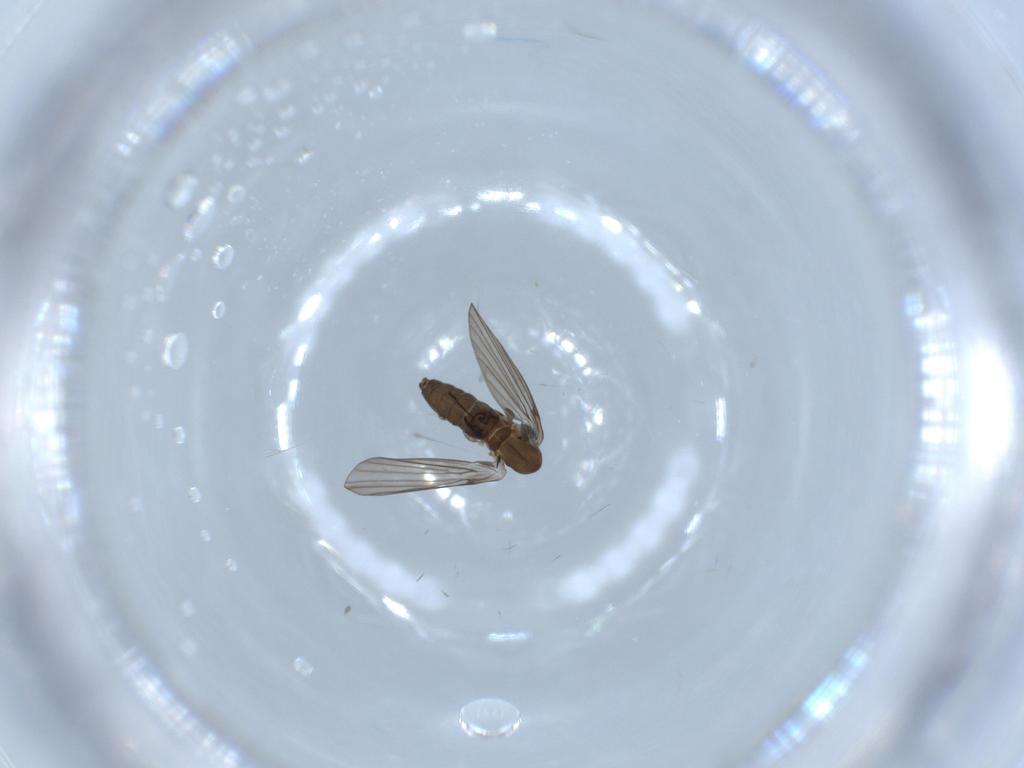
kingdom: Animalia
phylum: Arthropoda
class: Insecta
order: Diptera
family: Psychodidae
